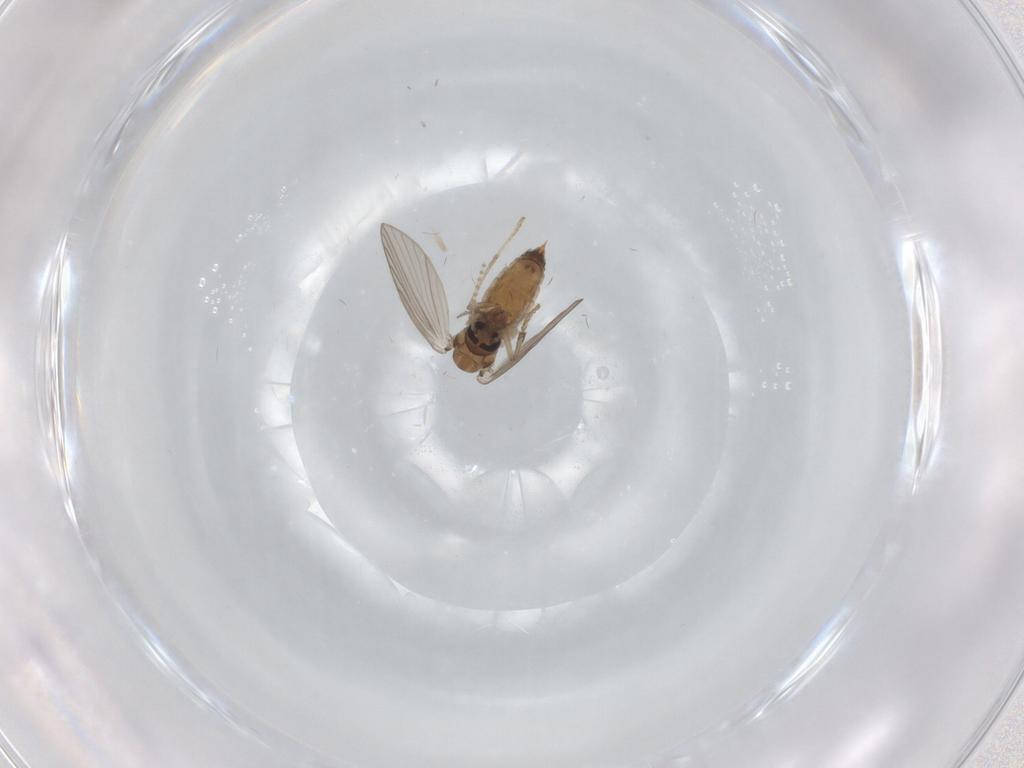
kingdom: Animalia
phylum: Arthropoda
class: Insecta
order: Diptera
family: Psychodidae
